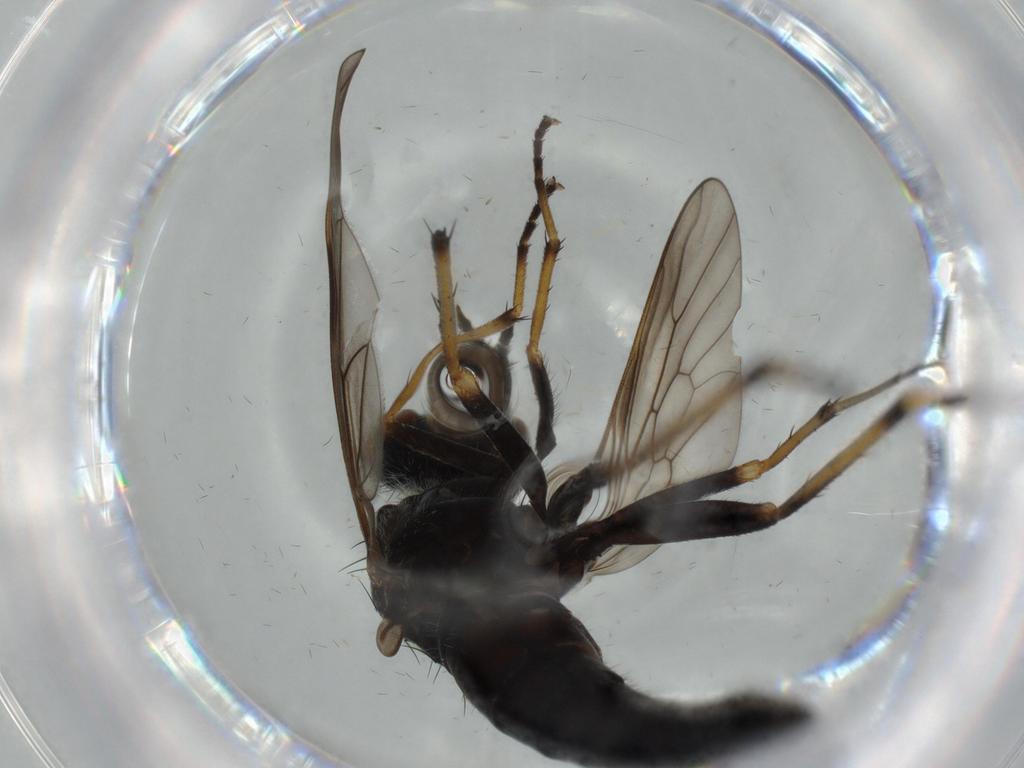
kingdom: Animalia
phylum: Arthropoda
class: Insecta
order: Diptera
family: Therevidae
